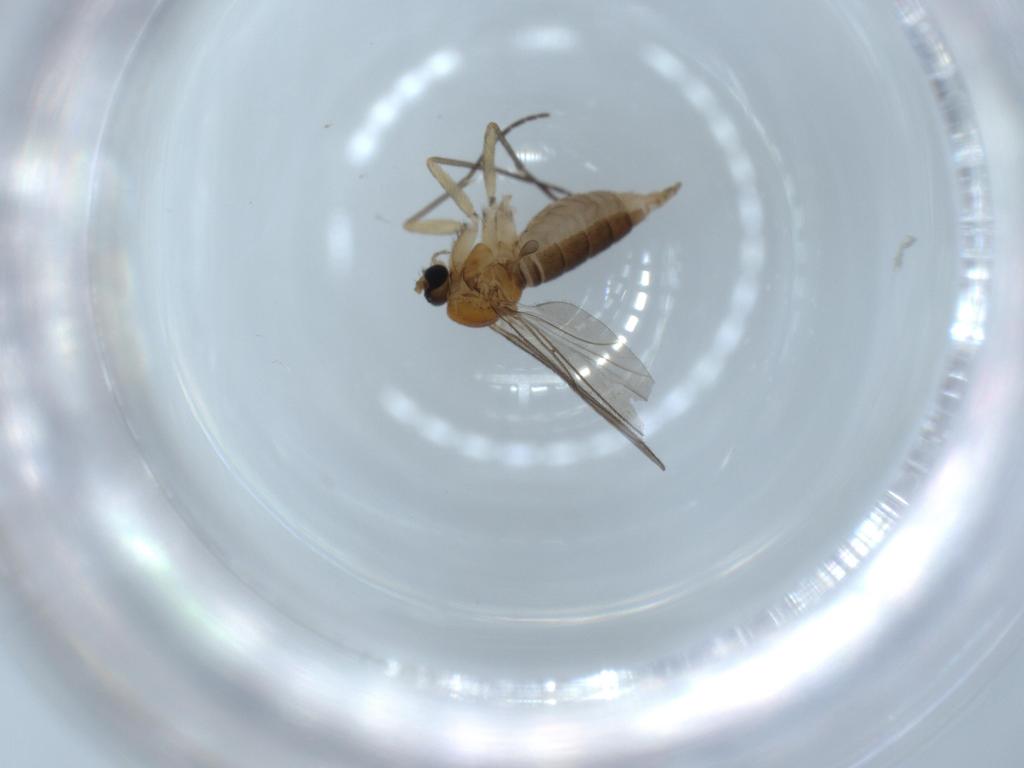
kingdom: Animalia
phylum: Arthropoda
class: Insecta
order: Diptera
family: Sciaridae
